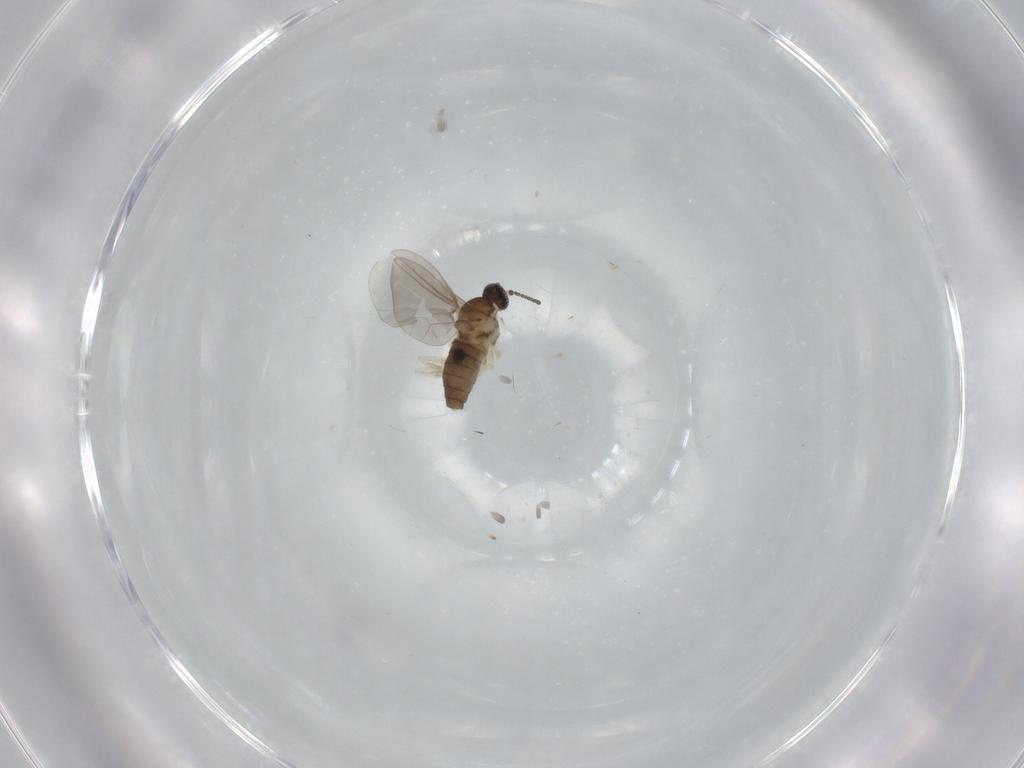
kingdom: Animalia
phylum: Arthropoda
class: Insecta
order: Diptera
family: Cecidomyiidae
